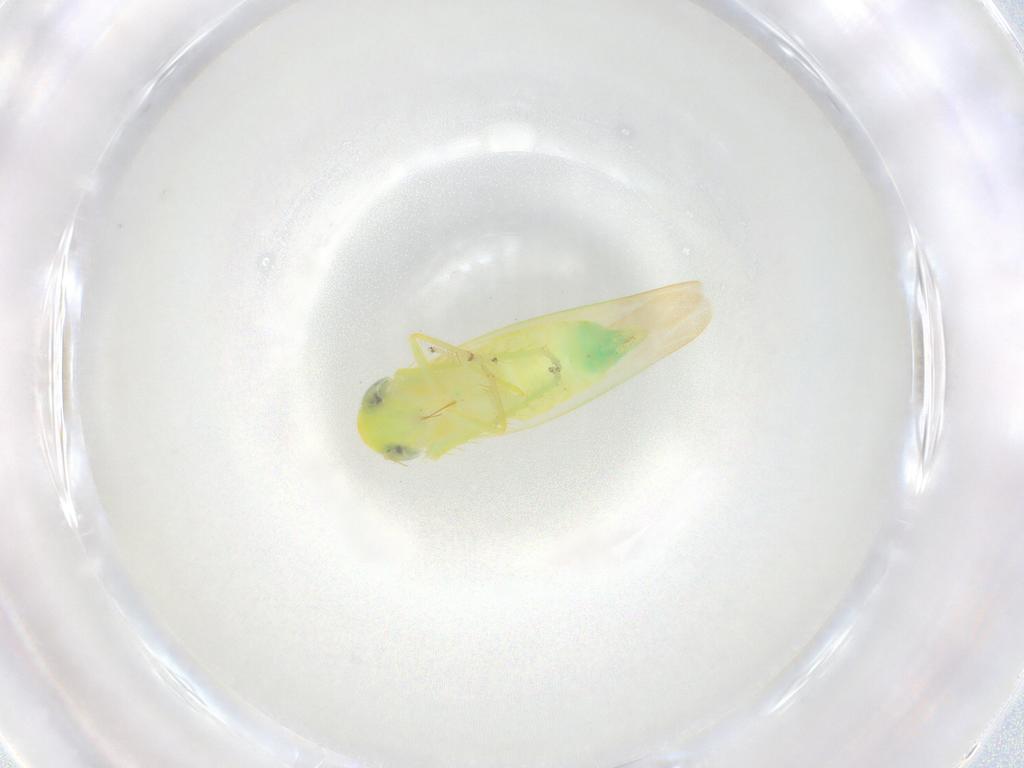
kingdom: Animalia
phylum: Arthropoda
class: Insecta
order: Hemiptera
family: Cicadellidae
